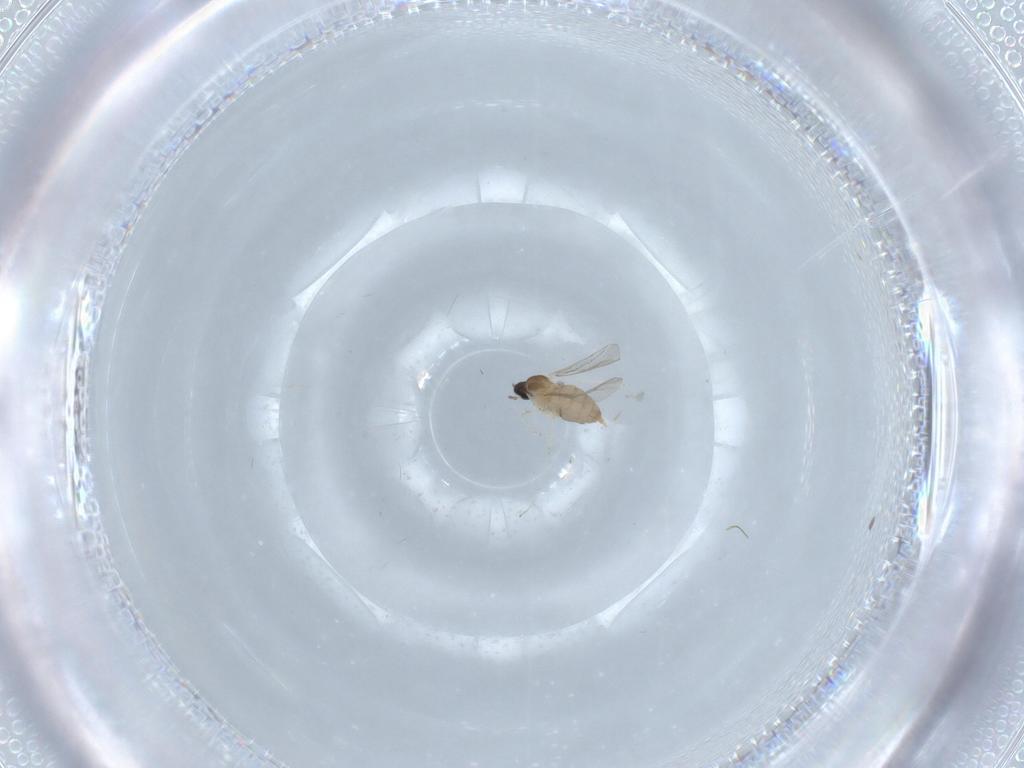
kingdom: Animalia
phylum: Arthropoda
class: Insecta
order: Diptera
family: Cecidomyiidae
